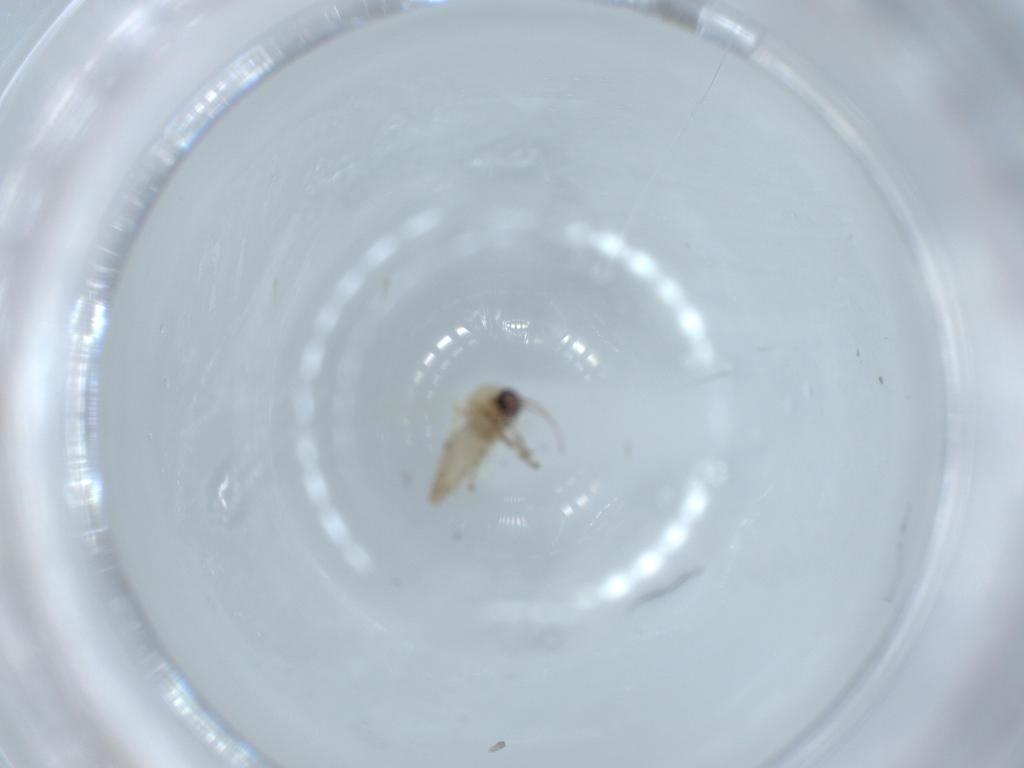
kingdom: Animalia
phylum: Arthropoda
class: Insecta
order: Diptera
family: Ceratopogonidae
